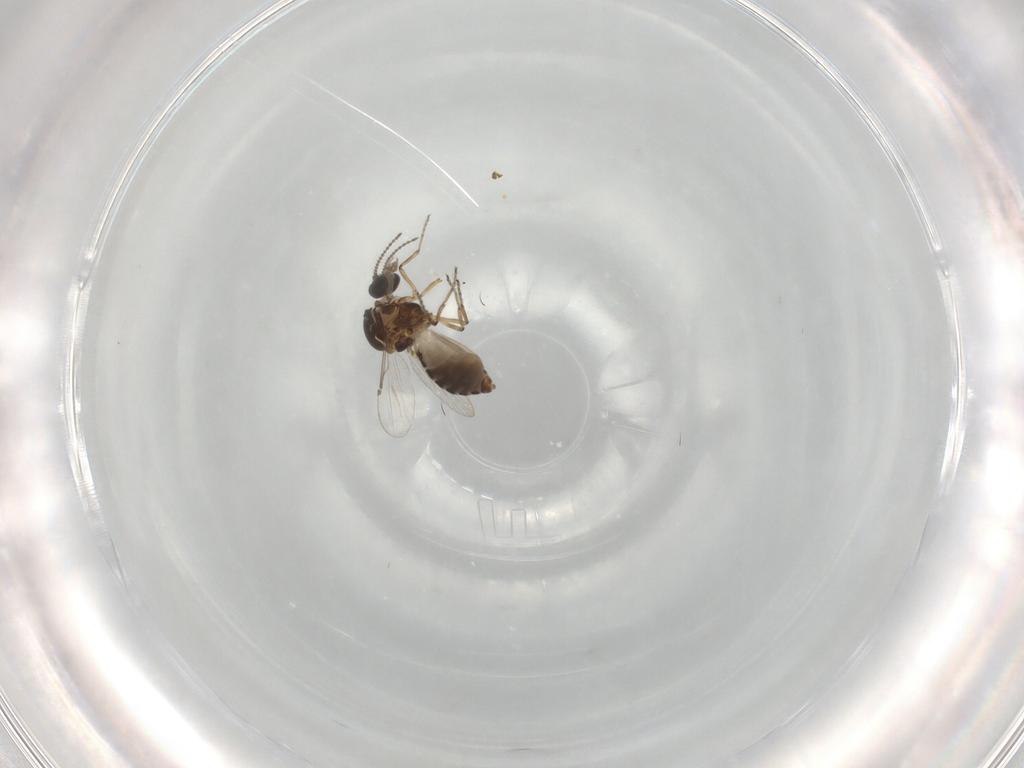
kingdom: Animalia
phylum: Arthropoda
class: Insecta
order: Diptera
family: Ceratopogonidae
